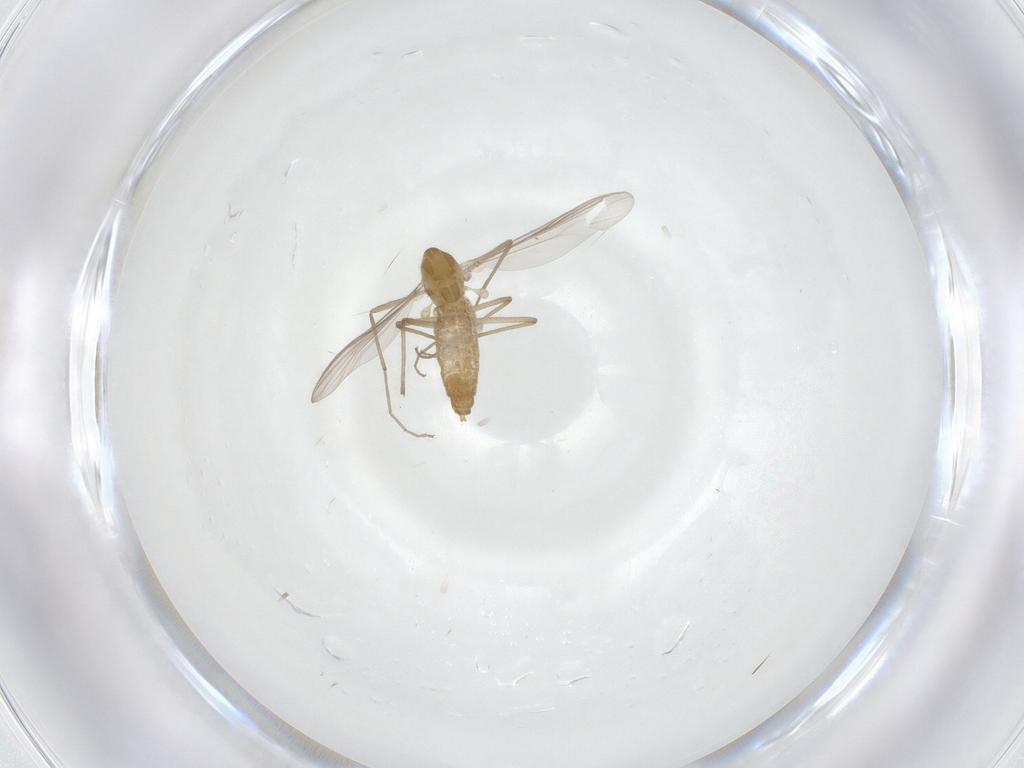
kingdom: Animalia
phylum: Arthropoda
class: Insecta
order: Diptera
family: Chironomidae
